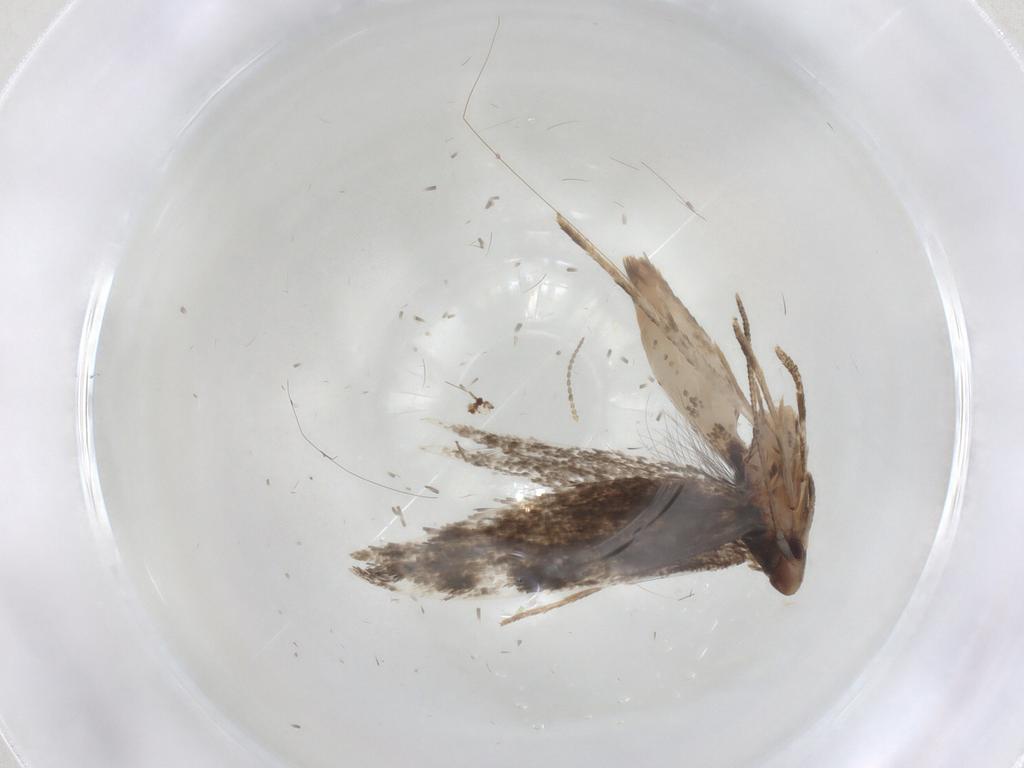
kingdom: Animalia
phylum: Arthropoda
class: Insecta
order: Lepidoptera
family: Gelechiidae
